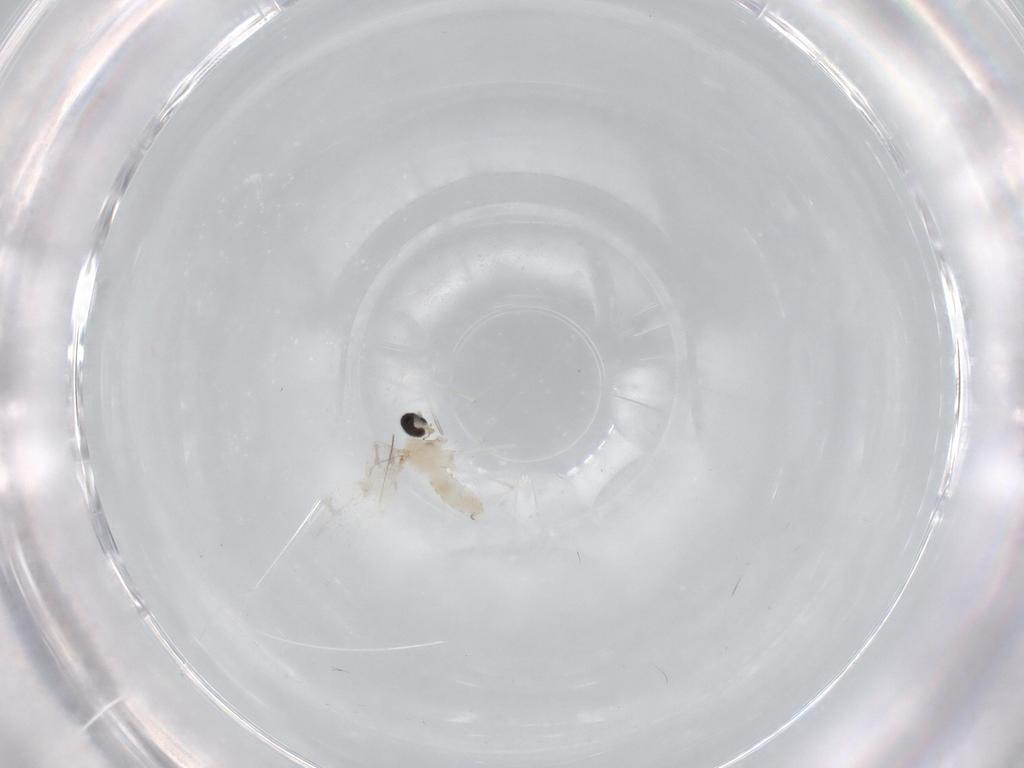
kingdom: Animalia
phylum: Arthropoda
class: Insecta
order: Diptera
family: Cecidomyiidae
